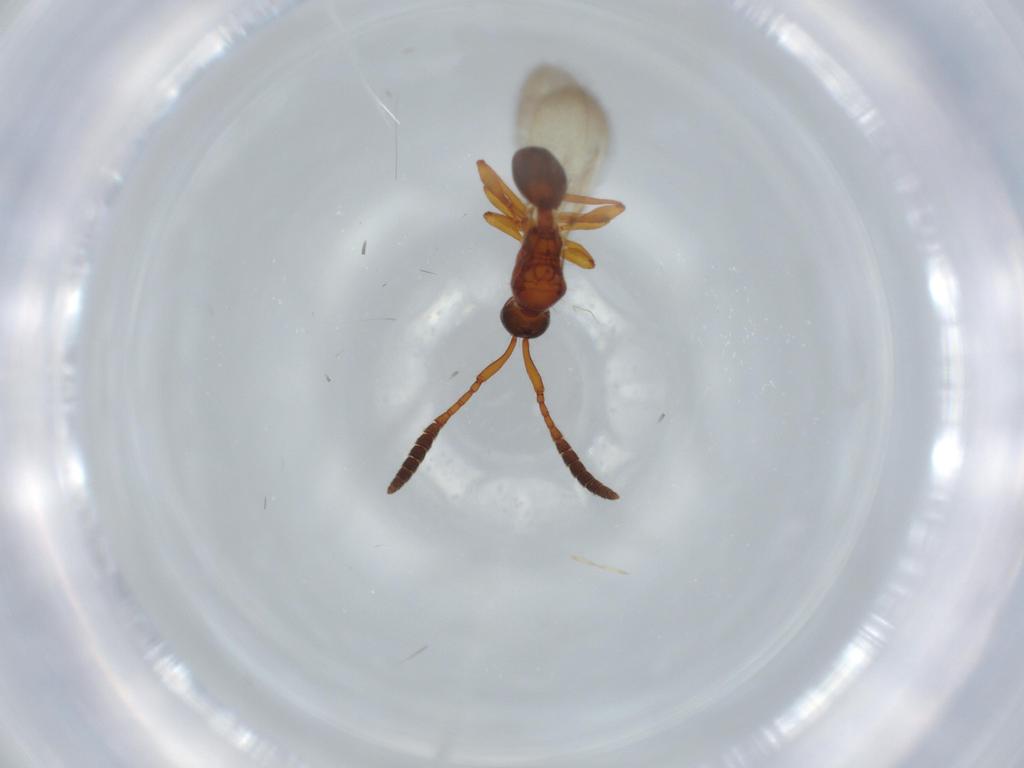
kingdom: Animalia
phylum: Arthropoda
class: Insecta
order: Hymenoptera
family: Diapriidae
